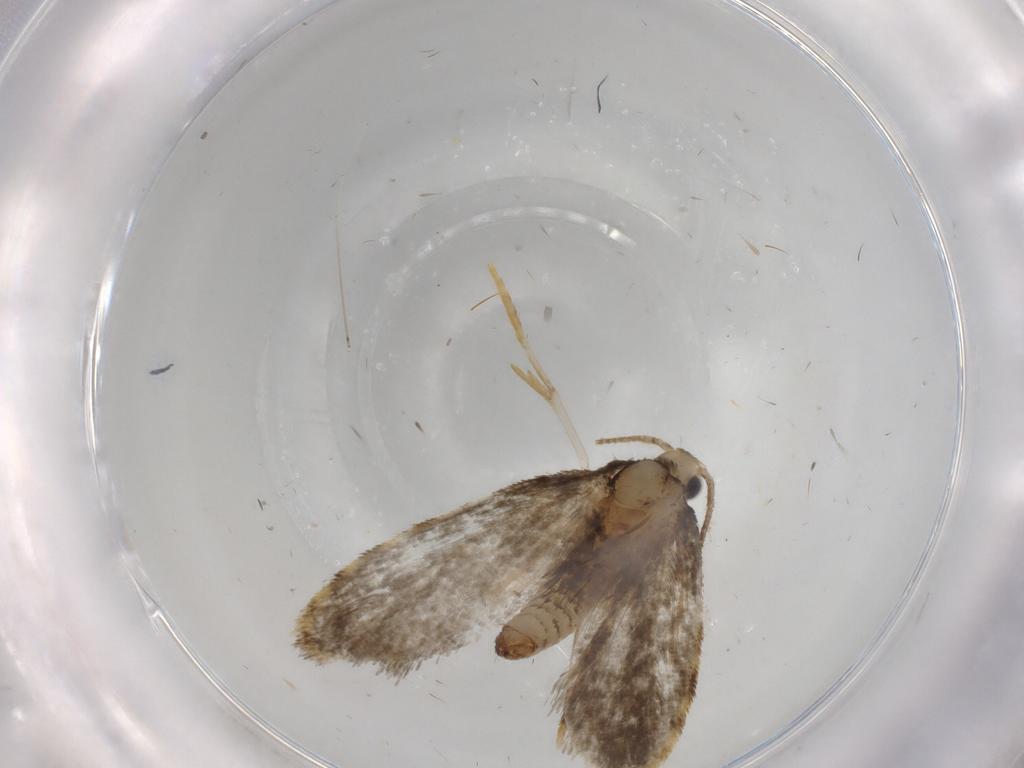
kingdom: Animalia
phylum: Arthropoda
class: Insecta
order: Lepidoptera
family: Psychidae
